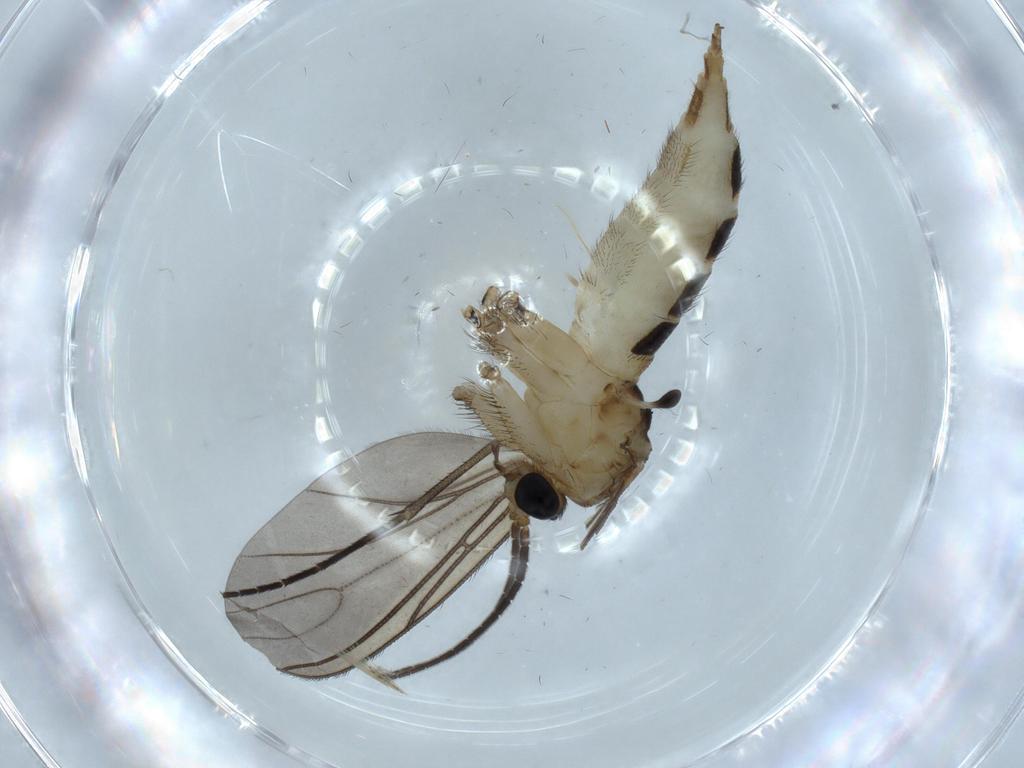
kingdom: Animalia
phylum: Arthropoda
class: Insecta
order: Diptera
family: Sciaridae
